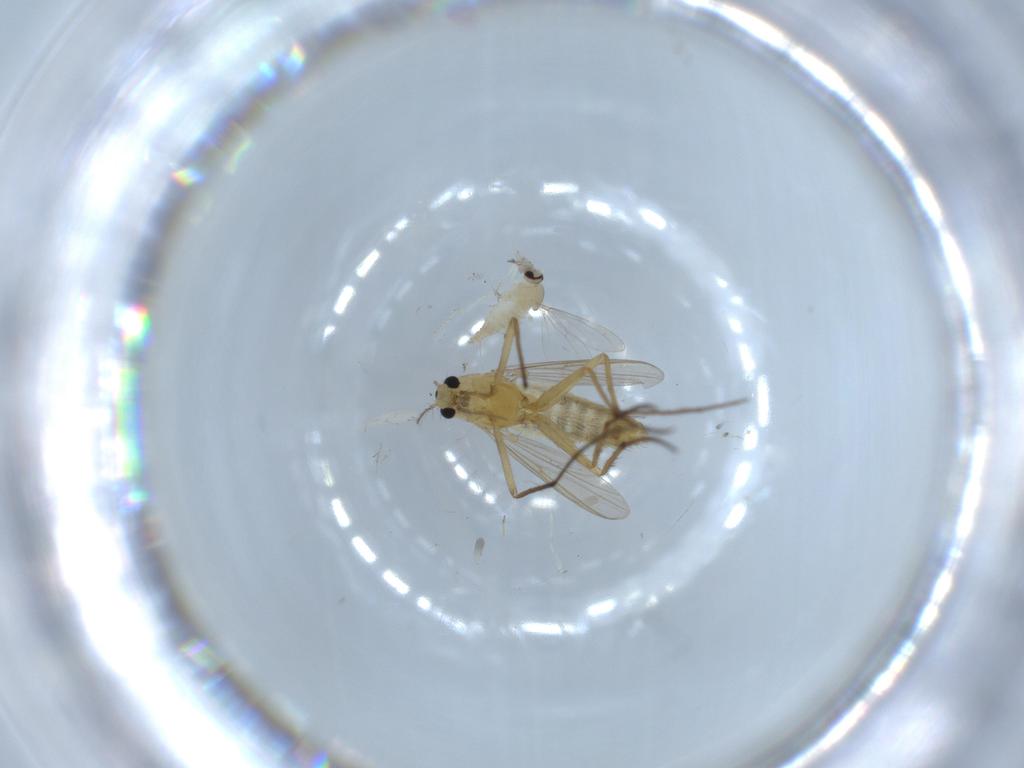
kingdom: Animalia
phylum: Arthropoda
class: Insecta
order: Diptera
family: Chironomidae
